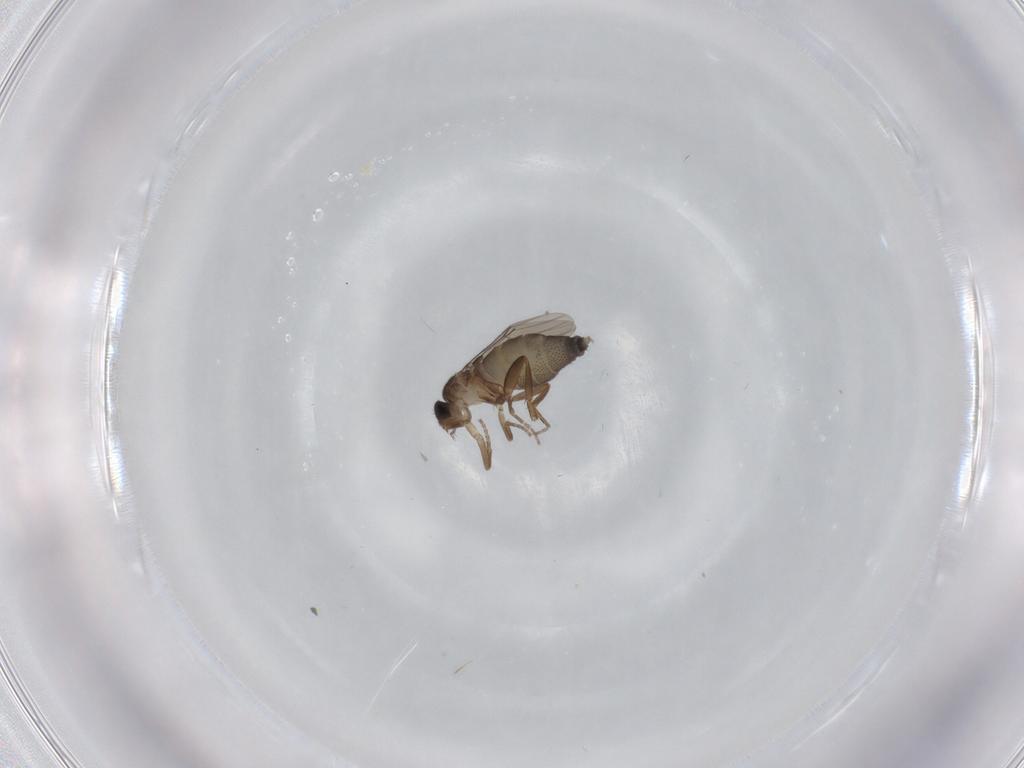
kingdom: Animalia
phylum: Arthropoda
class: Insecta
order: Diptera
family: Phoridae
